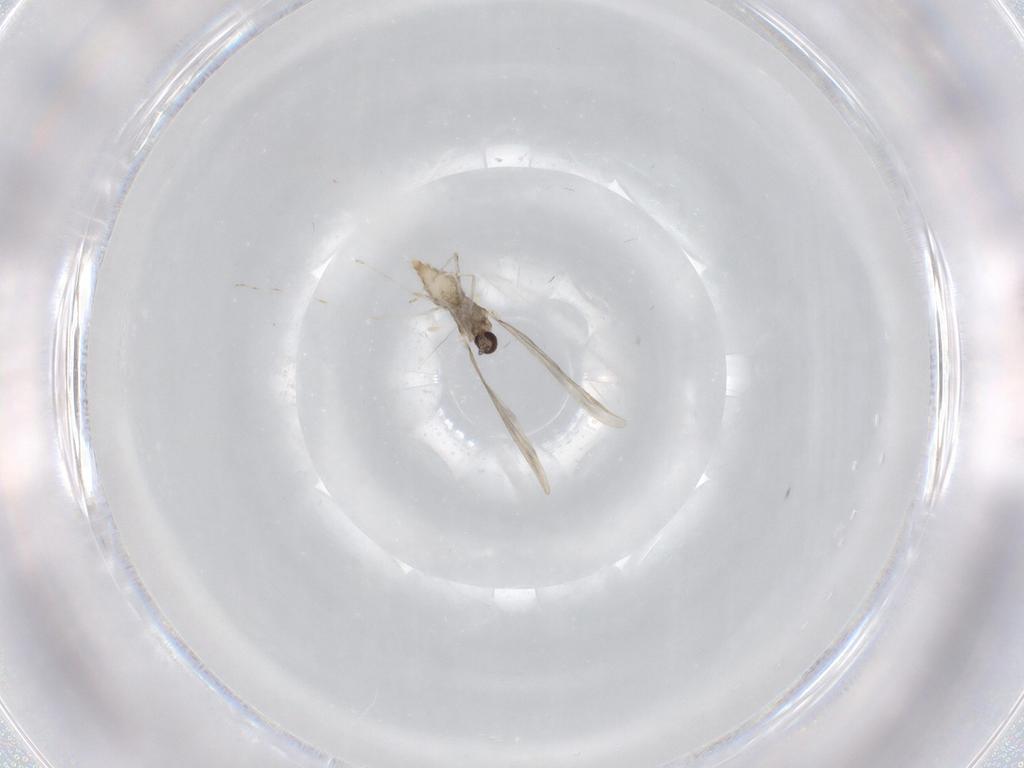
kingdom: Animalia
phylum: Arthropoda
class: Insecta
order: Diptera
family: Cecidomyiidae
